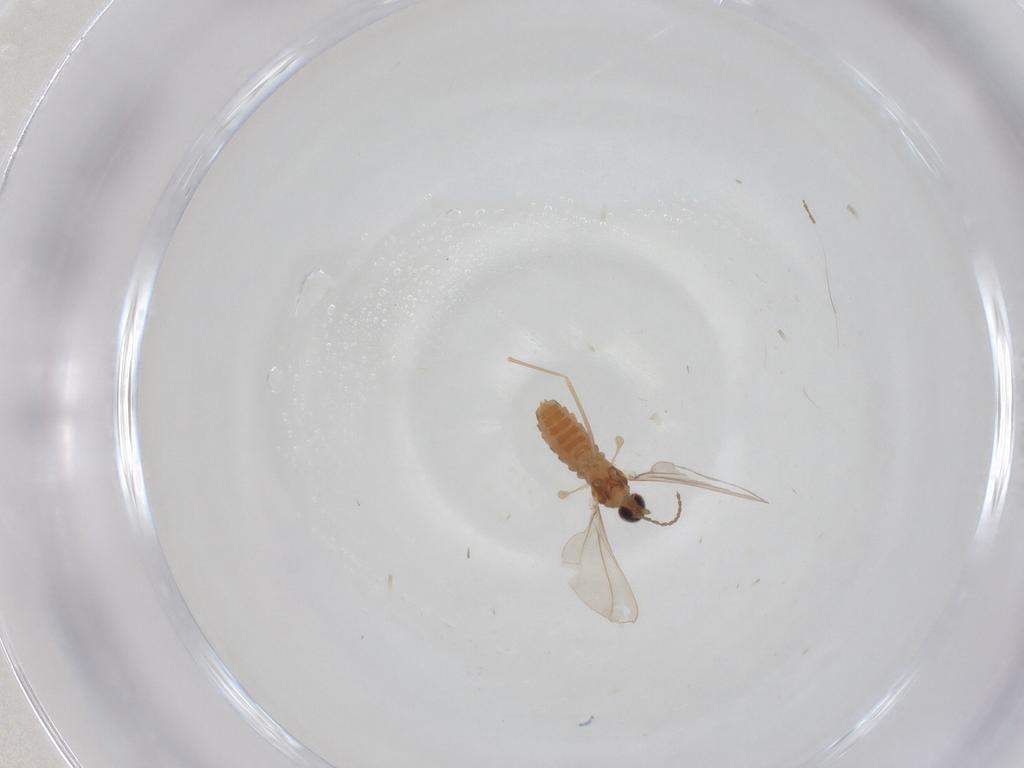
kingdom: Animalia
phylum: Arthropoda
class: Insecta
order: Diptera
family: Cecidomyiidae
